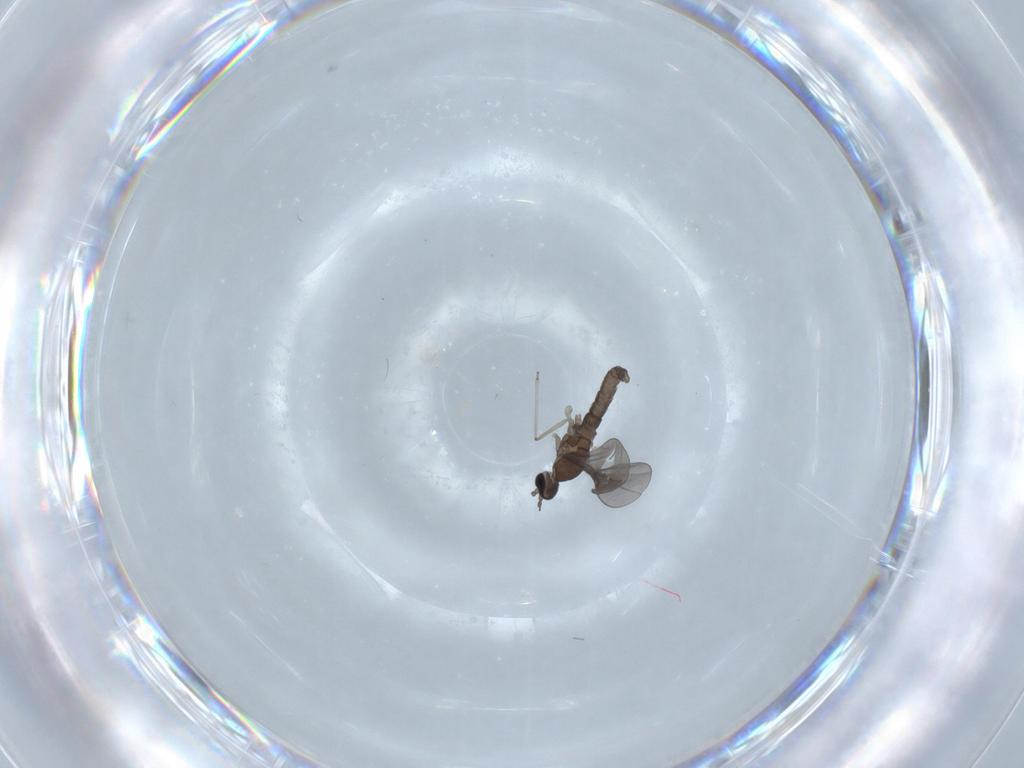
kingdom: Animalia
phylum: Arthropoda
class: Insecta
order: Diptera
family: Cecidomyiidae
